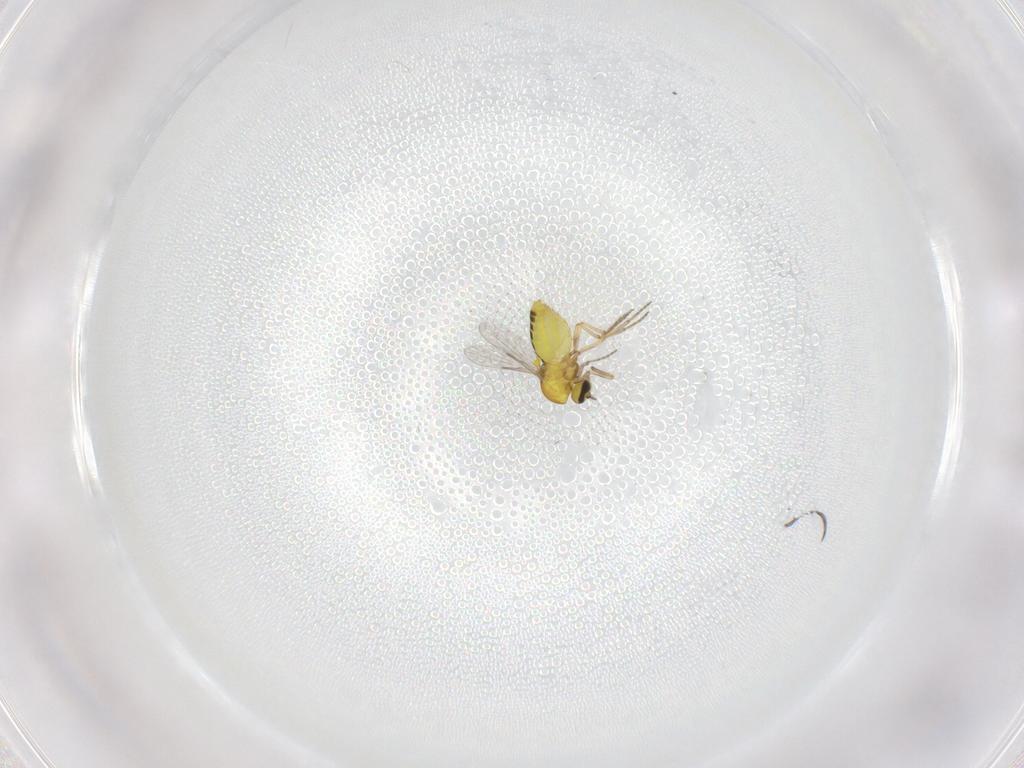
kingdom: Animalia
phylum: Arthropoda
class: Insecta
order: Diptera
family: Ceratopogonidae
